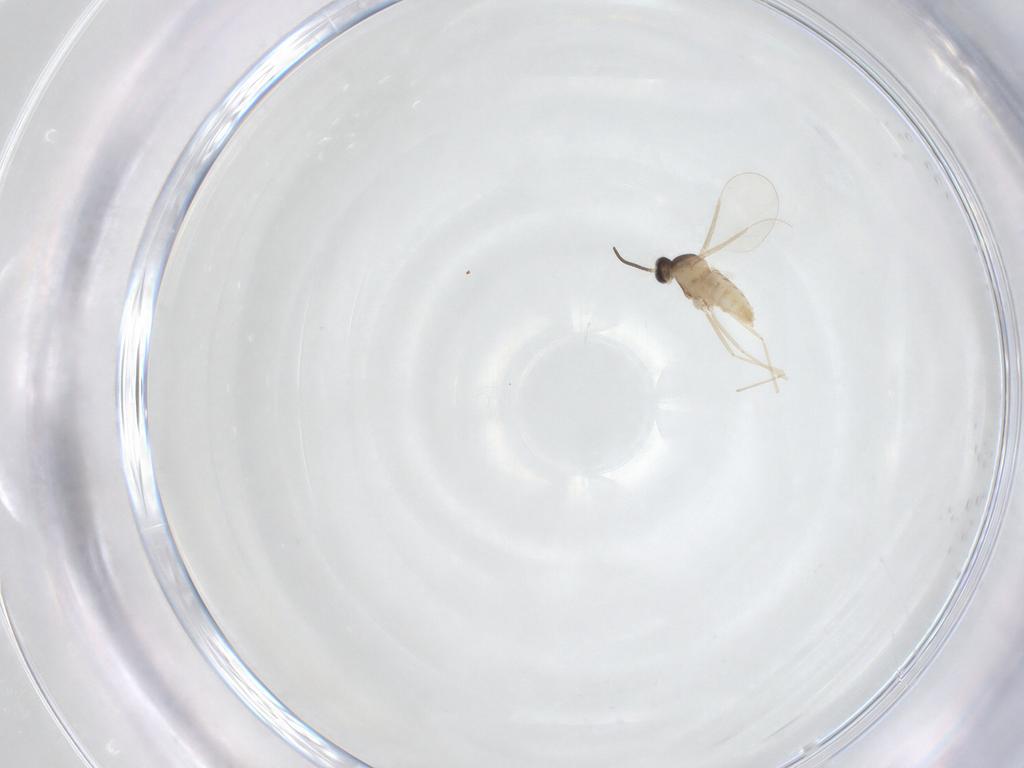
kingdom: Animalia
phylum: Arthropoda
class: Insecta
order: Diptera
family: Cecidomyiidae
